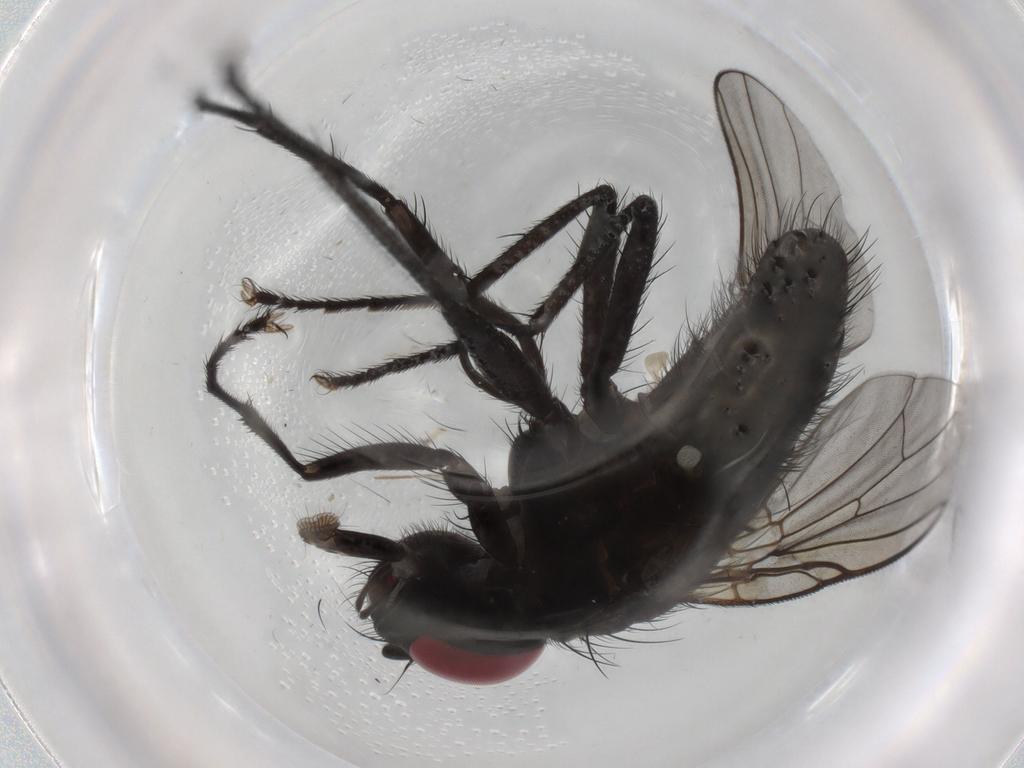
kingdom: Animalia
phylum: Arthropoda
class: Insecta
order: Diptera
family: Muscidae
